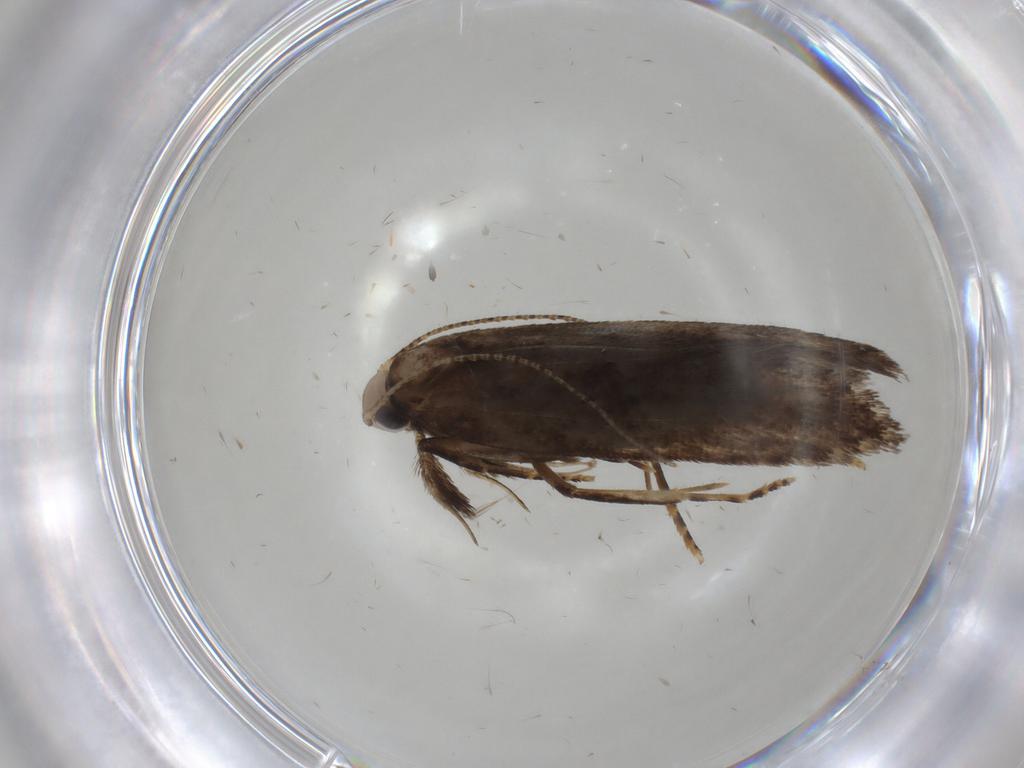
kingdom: Animalia
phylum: Arthropoda
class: Insecta
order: Lepidoptera
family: Gelechiidae
